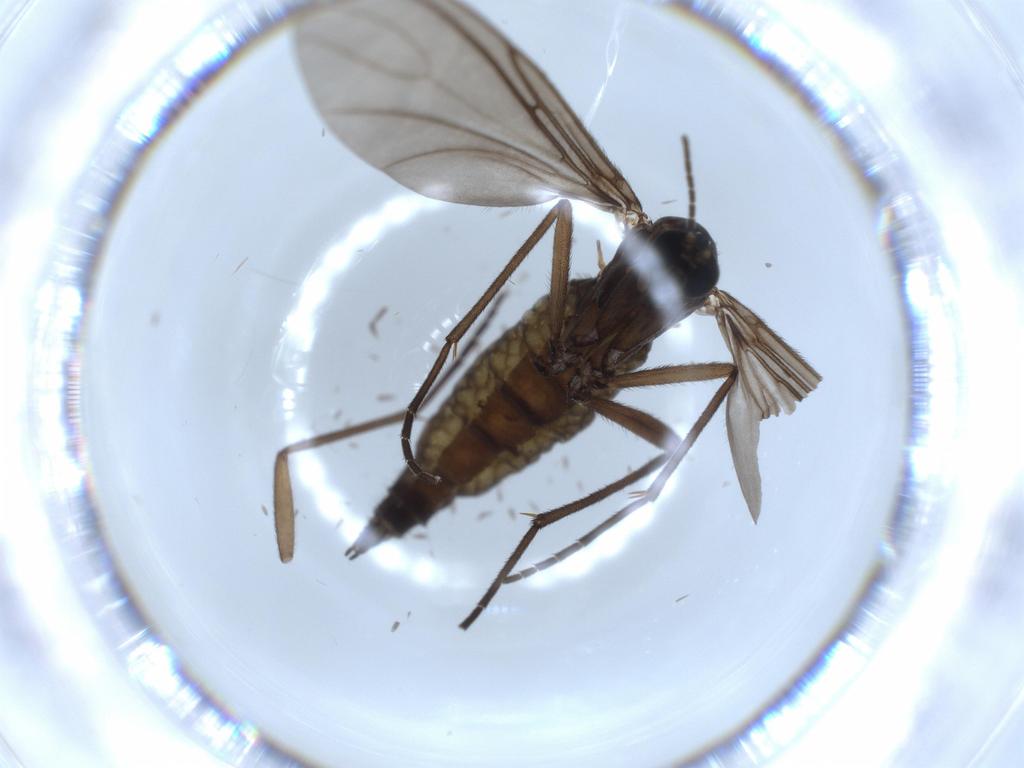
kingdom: Animalia
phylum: Arthropoda
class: Insecta
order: Diptera
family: Sciaridae
